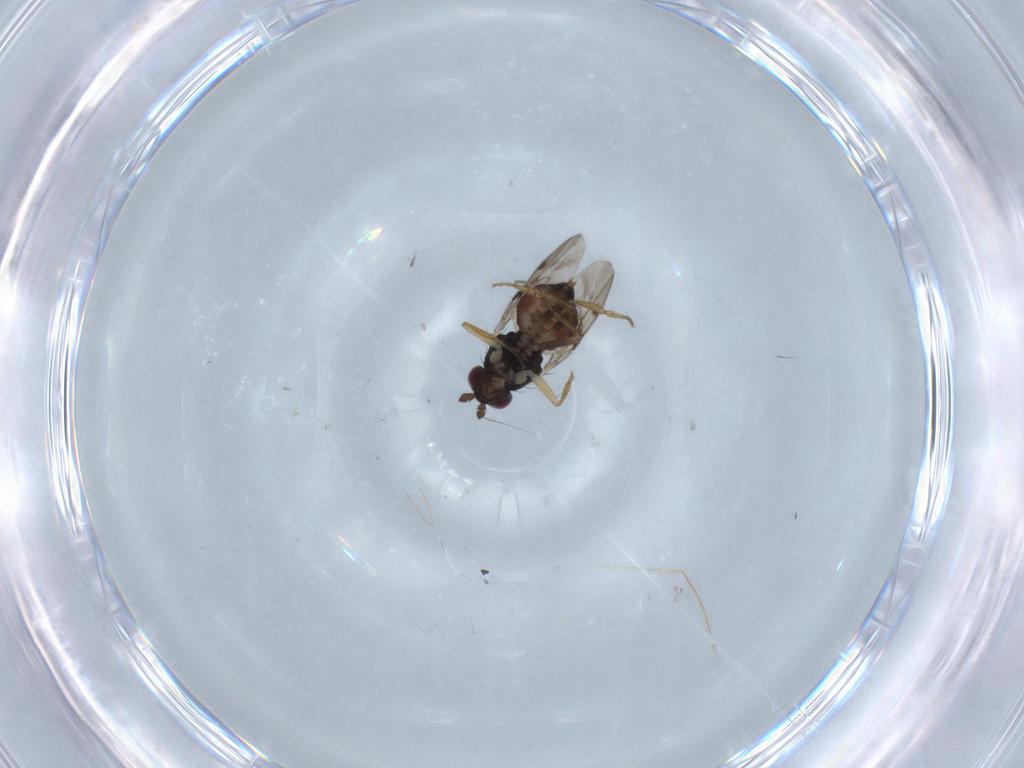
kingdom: Animalia
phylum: Arthropoda
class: Insecta
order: Diptera
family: Sphaeroceridae
